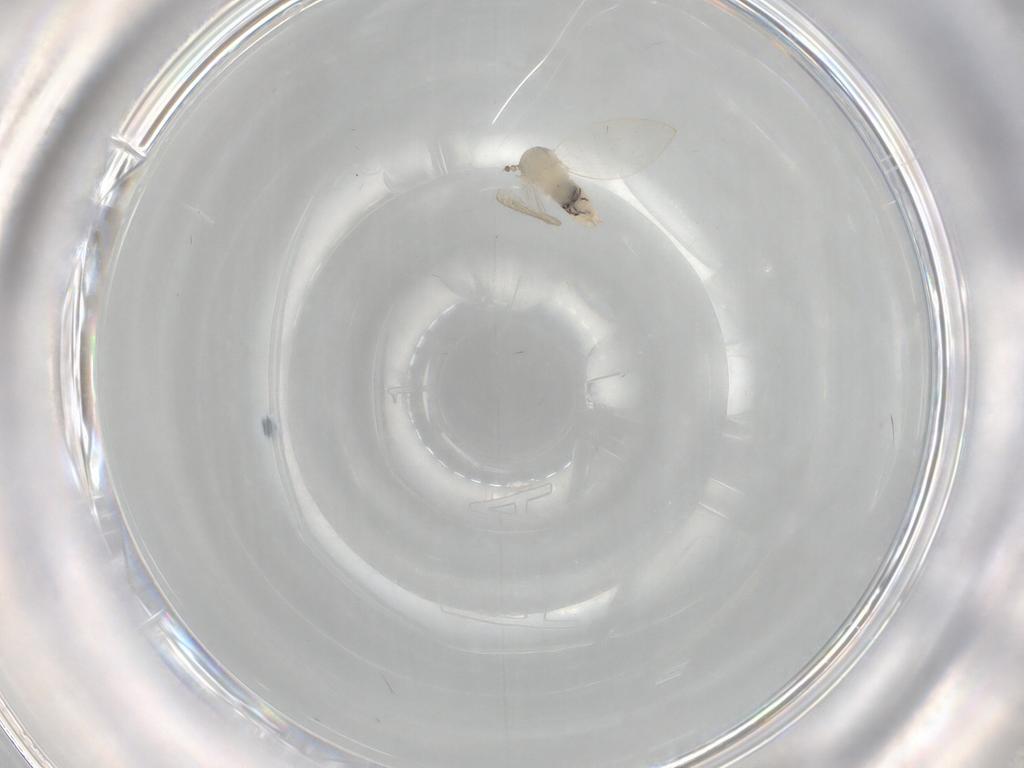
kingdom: Animalia
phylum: Arthropoda
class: Insecta
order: Diptera
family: Psychodidae
